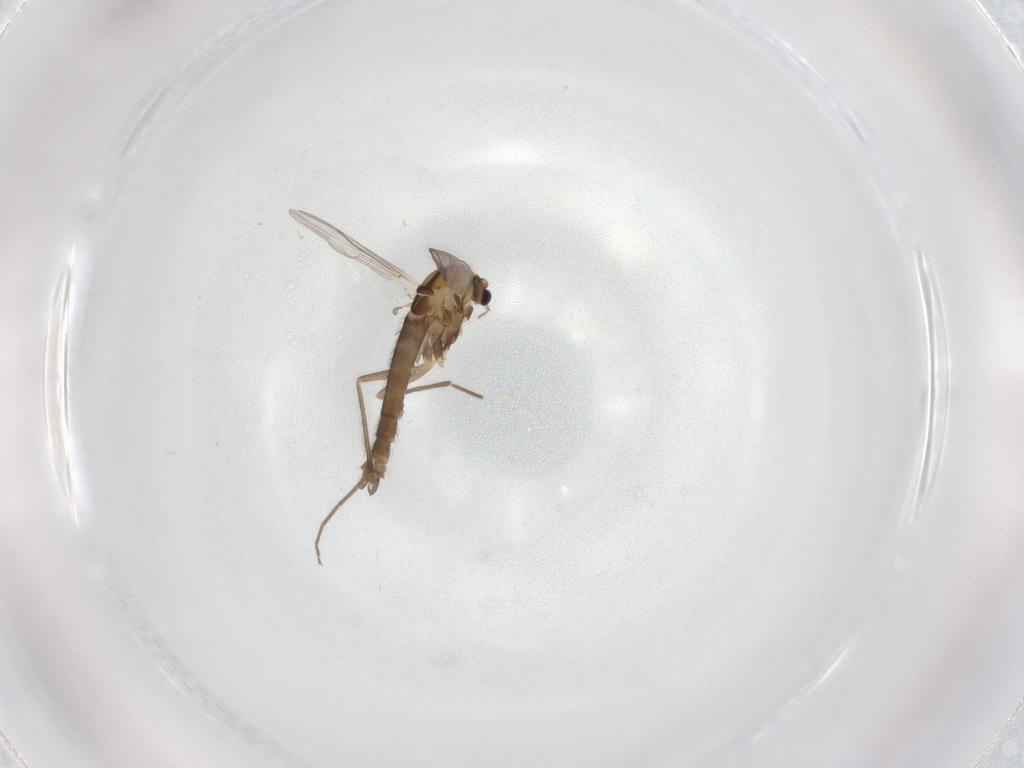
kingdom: Animalia
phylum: Arthropoda
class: Insecta
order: Diptera
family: Chironomidae
